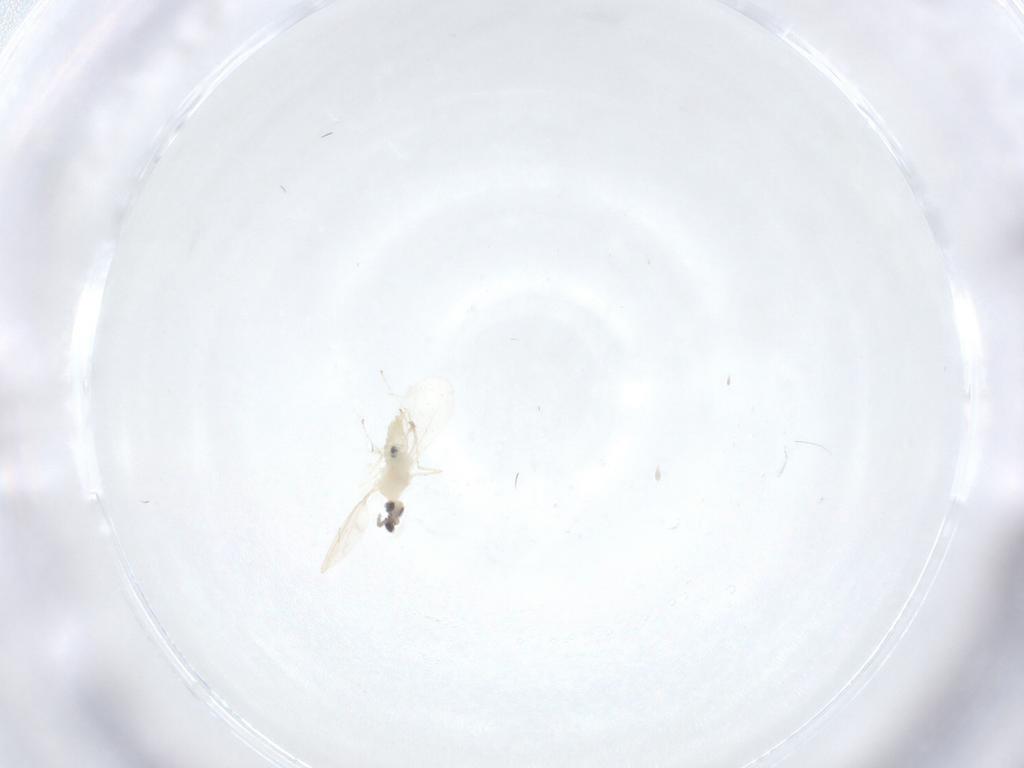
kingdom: Animalia
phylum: Arthropoda
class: Insecta
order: Diptera
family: Cecidomyiidae
